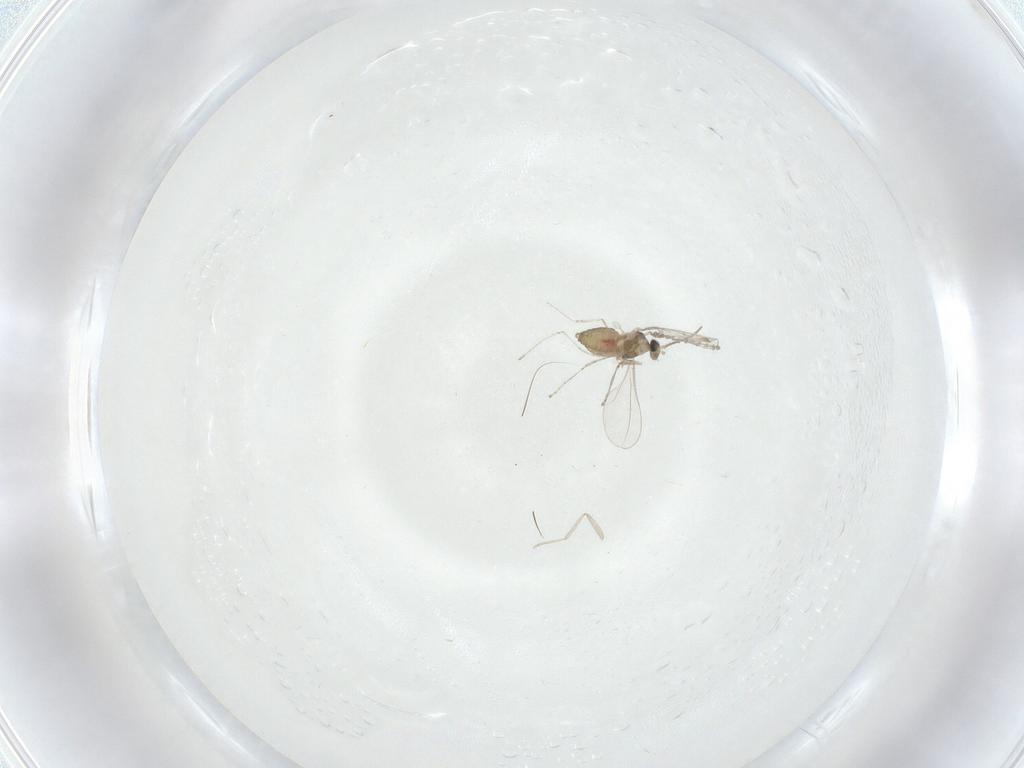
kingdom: Animalia
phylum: Arthropoda
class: Insecta
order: Diptera
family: Cecidomyiidae
